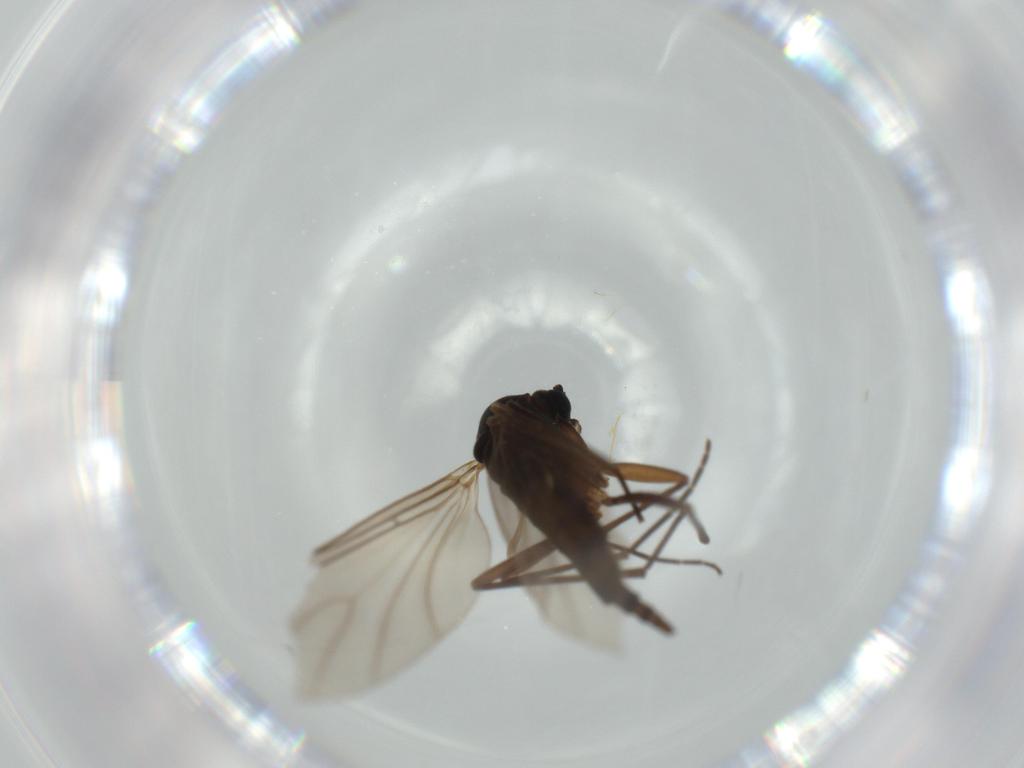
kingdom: Animalia
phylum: Arthropoda
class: Insecta
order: Diptera
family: Sciaridae
